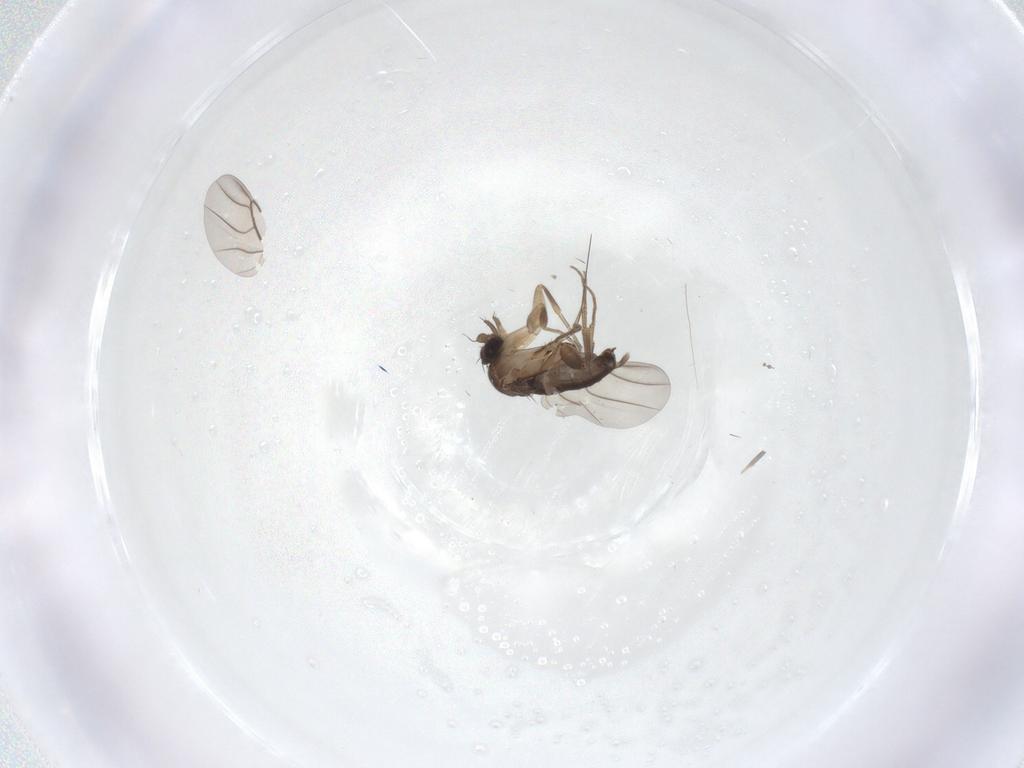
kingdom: Animalia
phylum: Arthropoda
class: Insecta
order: Diptera
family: Phoridae
